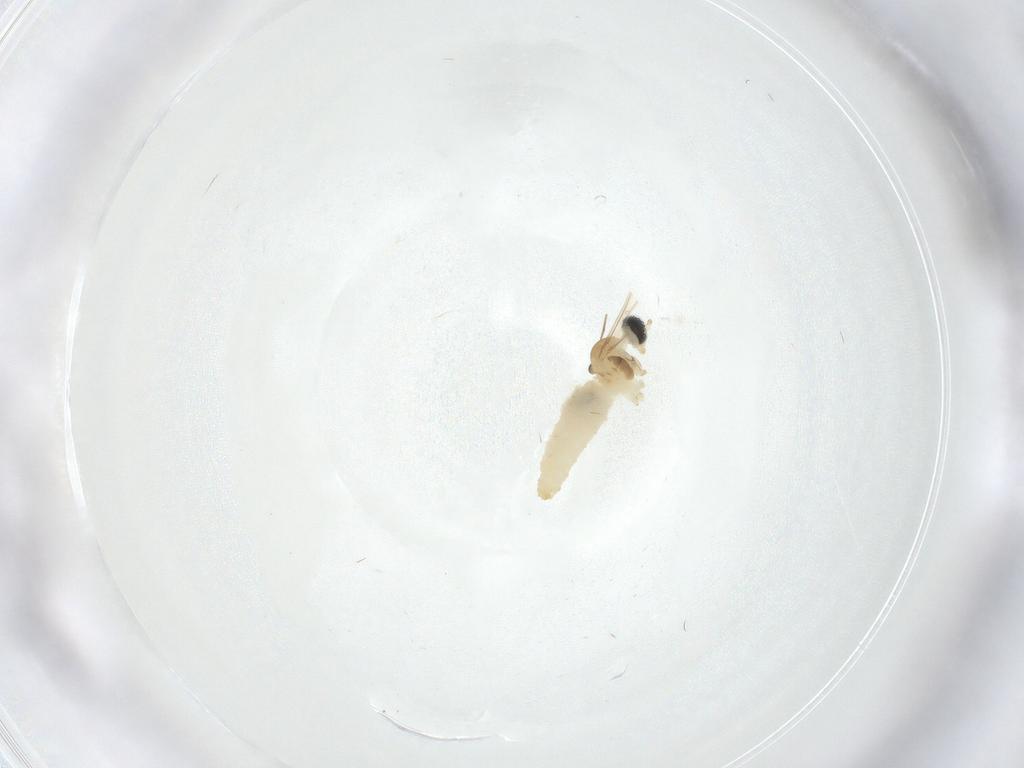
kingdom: Animalia
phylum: Arthropoda
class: Insecta
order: Diptera
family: Cecidomyiidae
